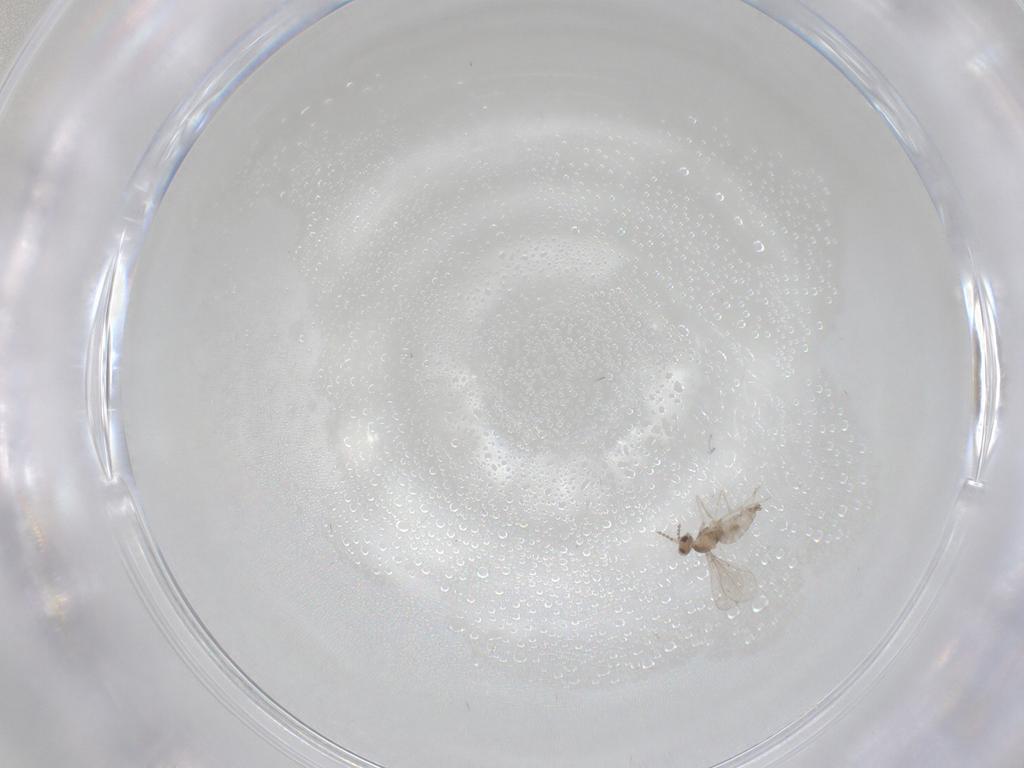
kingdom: Animalia
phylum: Arthropoda
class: Insecta
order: Diptera
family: Cecidomyiidae
